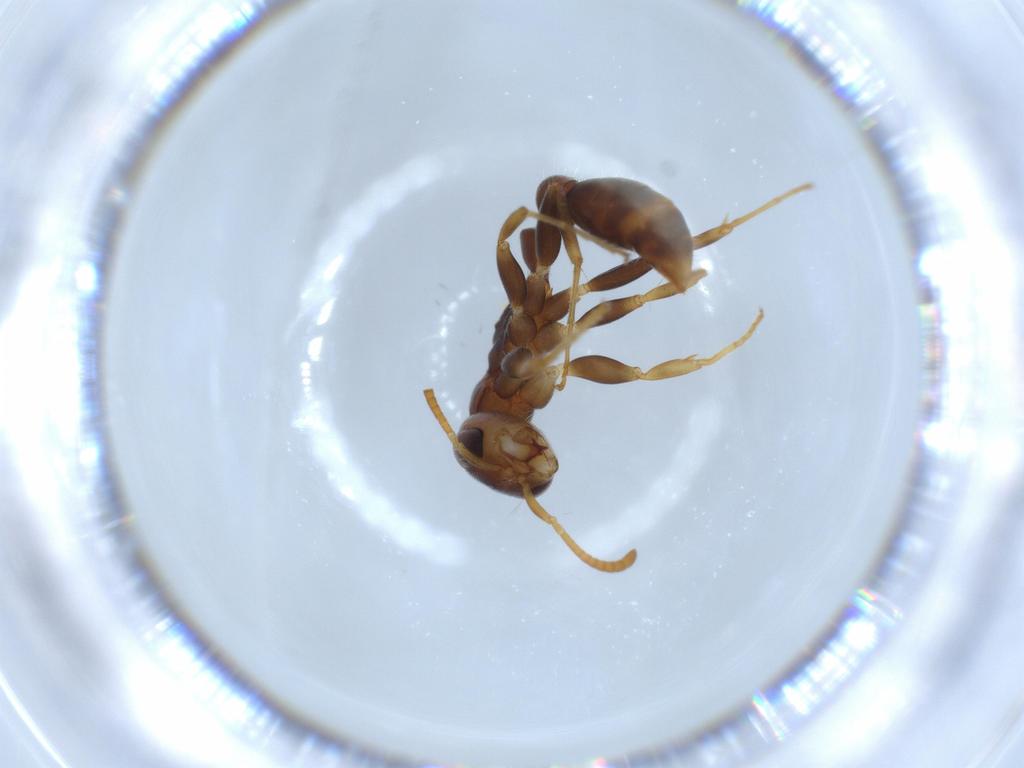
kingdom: Animalia
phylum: Arthropoda
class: Insecta
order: Hymenoptera
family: Formicidae
